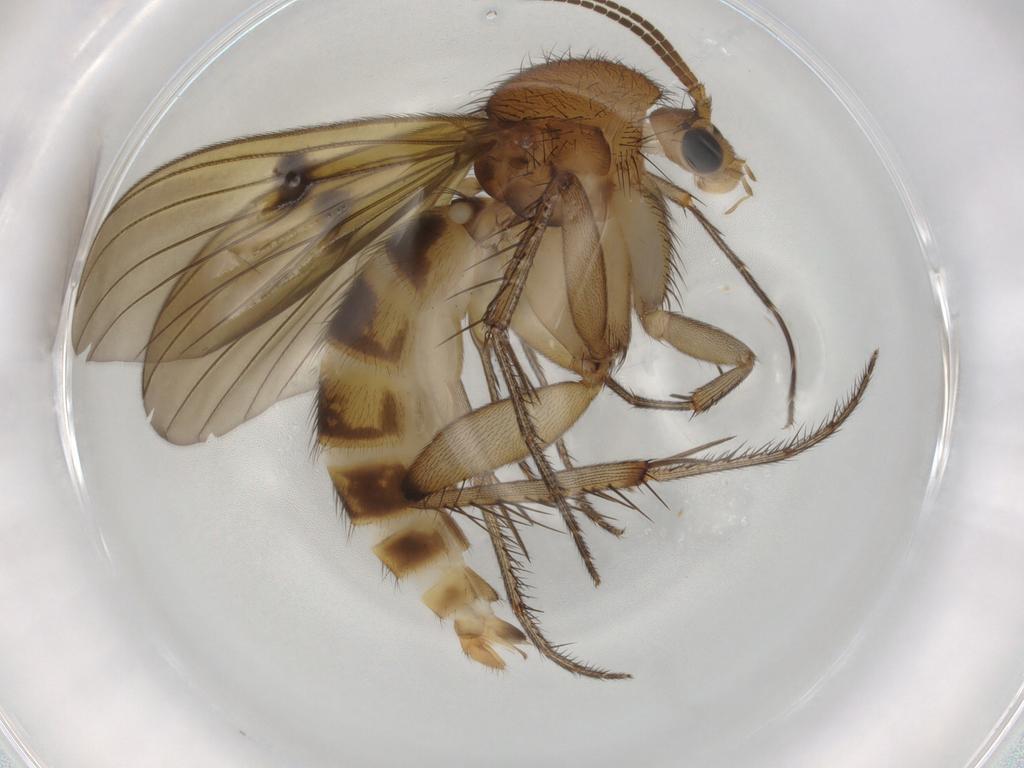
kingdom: Animalia
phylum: Arthropoda
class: Insecta
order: Diptera
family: Mycetophilidae
